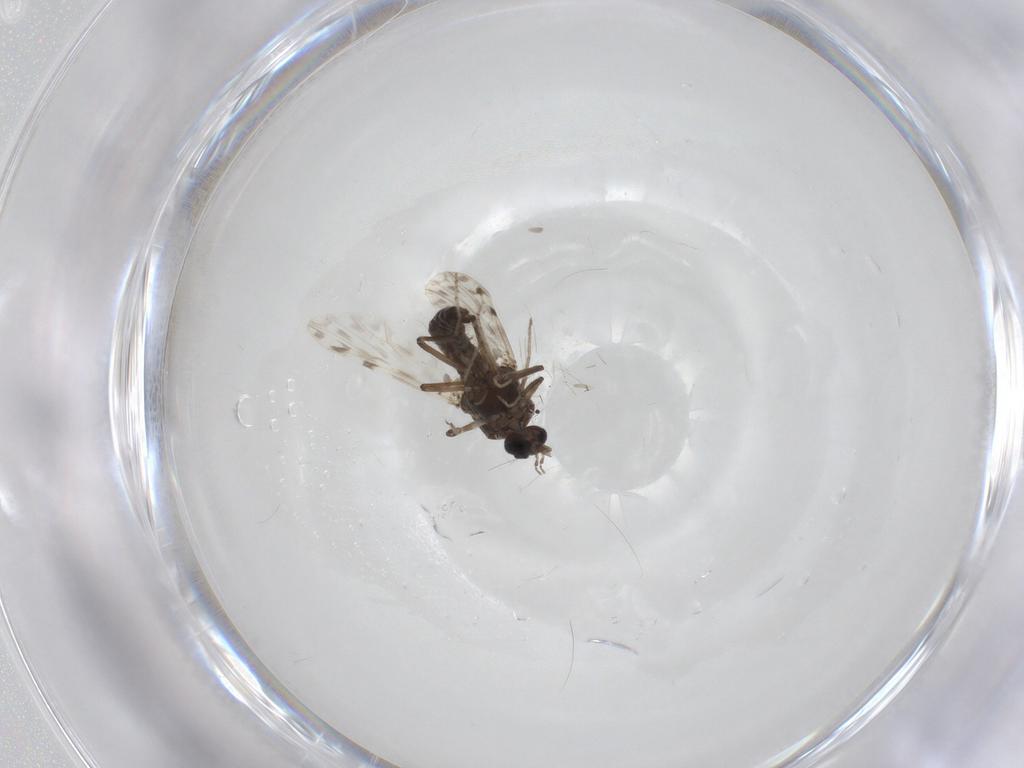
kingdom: Animalia
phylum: Arthropoda
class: Insecta
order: Diptera
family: Ceratopogonidae
